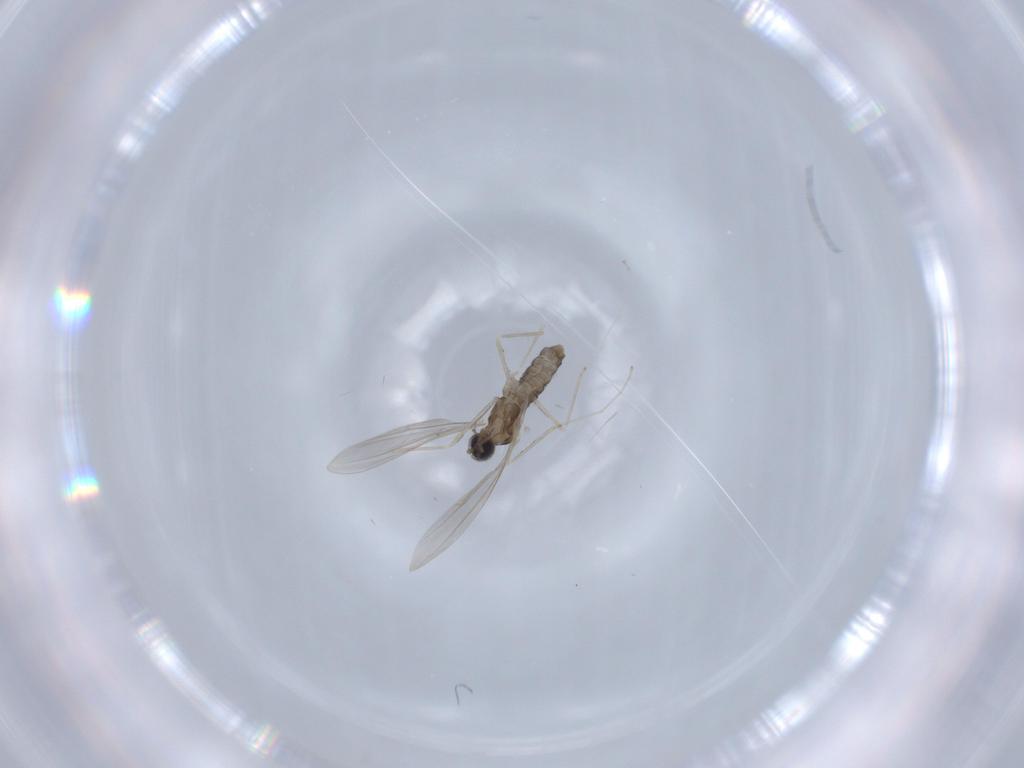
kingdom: Animalia
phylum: Arthropoda
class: Insecta
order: Diptera
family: Cecidomyiidae
